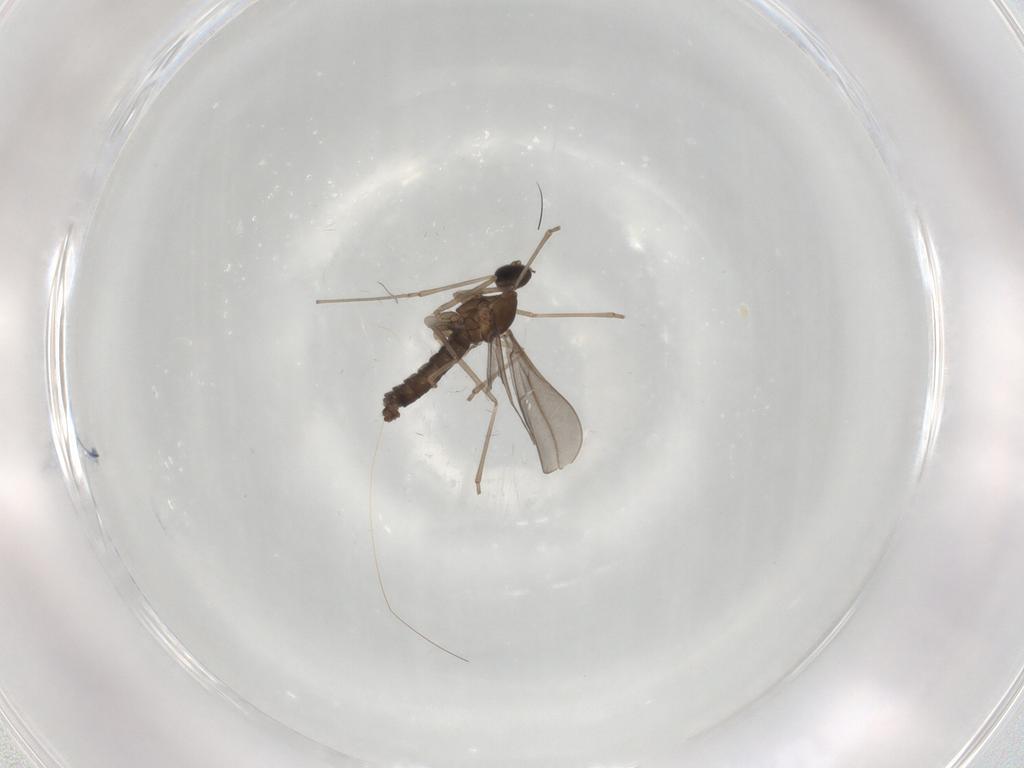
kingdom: Animalia
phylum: Arthropoda
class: Insecta
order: Diptera
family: Cecidomyiidae
